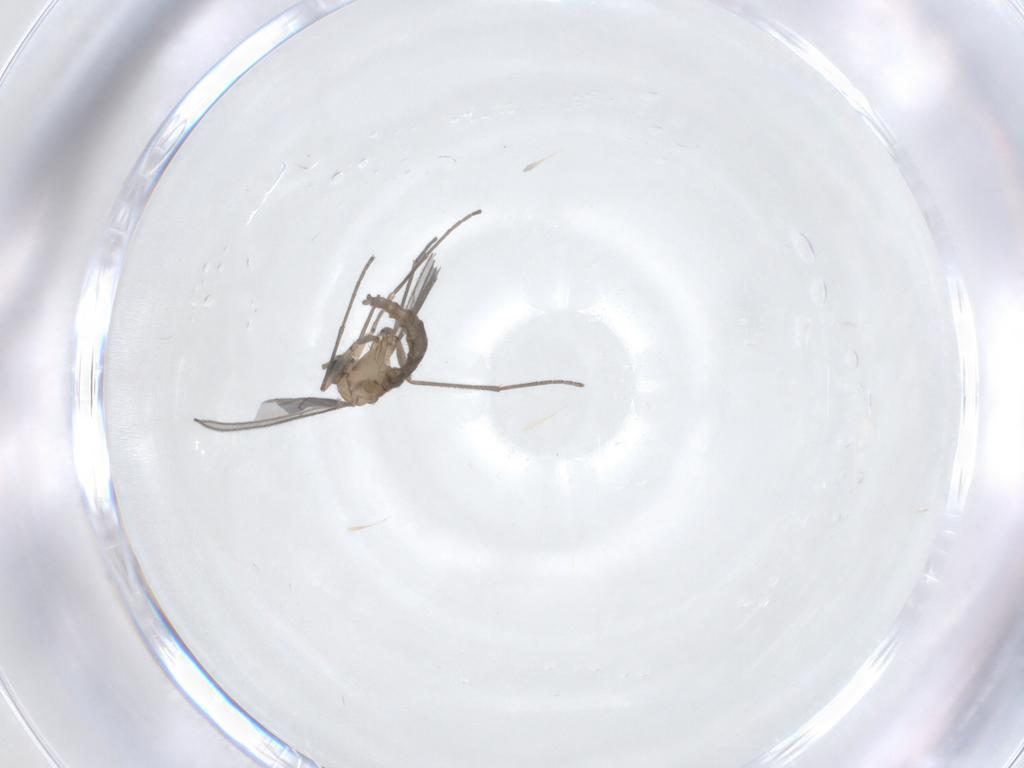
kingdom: Animalia
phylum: Arthropoda
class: Insecta
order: Diptera
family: Sciaridae
